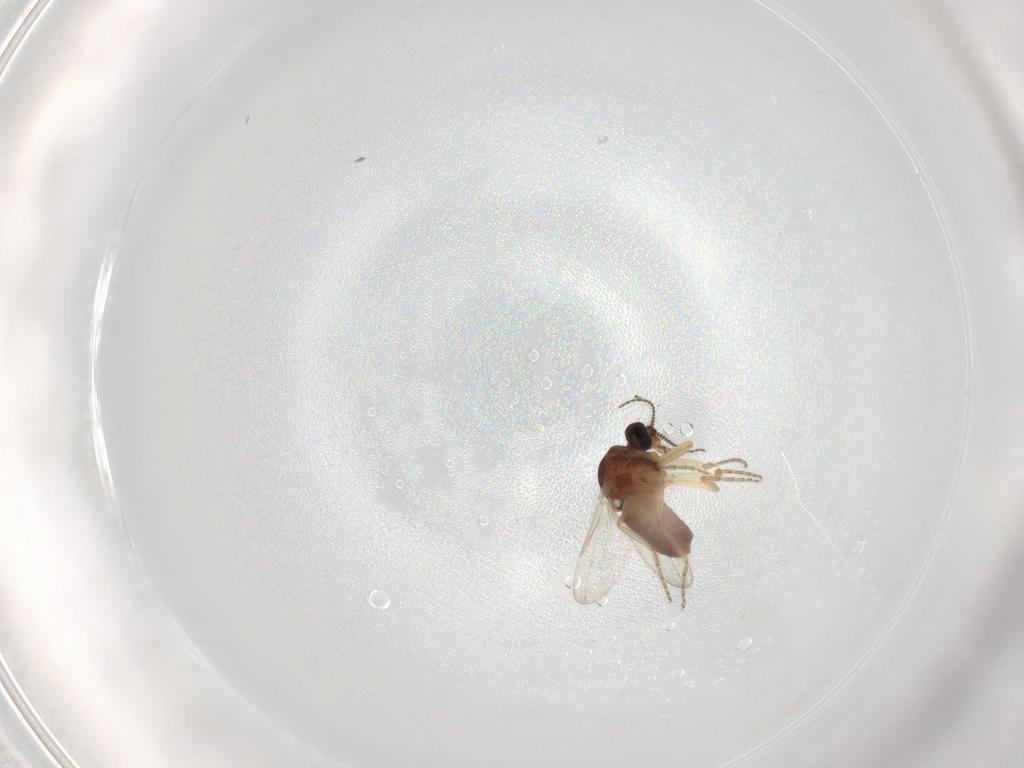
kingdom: Animalia
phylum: Arthropoda
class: Insecta
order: Diptera
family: Ceratopogonidae
